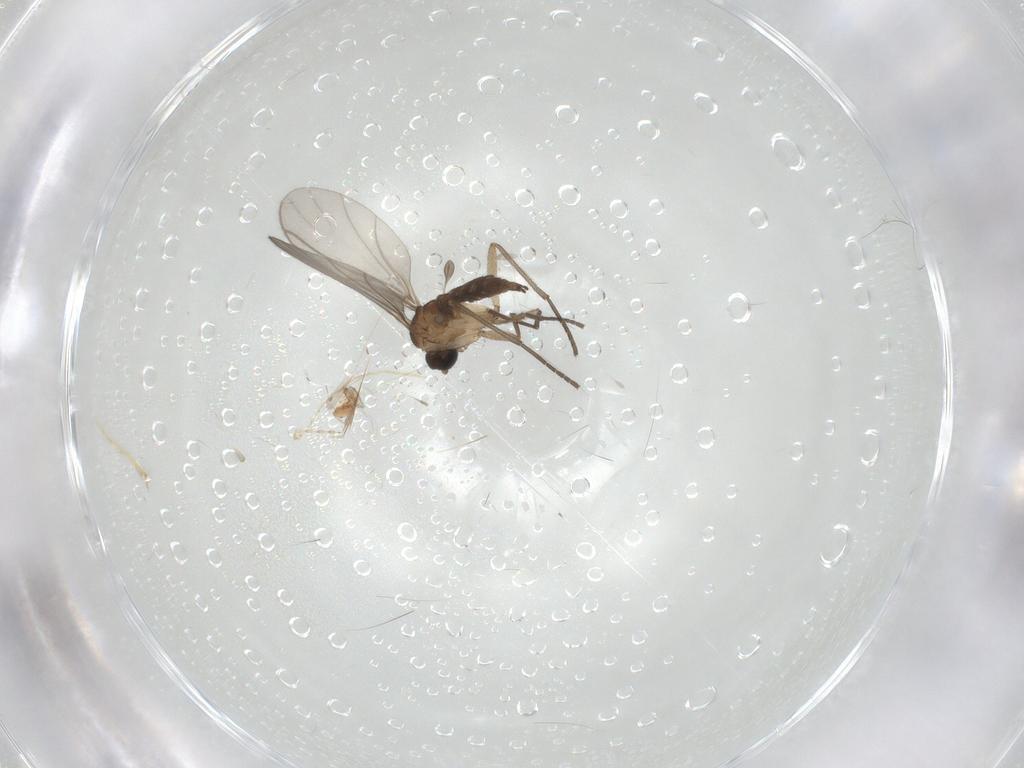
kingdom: Animalia
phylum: Arthropoda
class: Insecta
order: Diptera
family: Sciaridae
